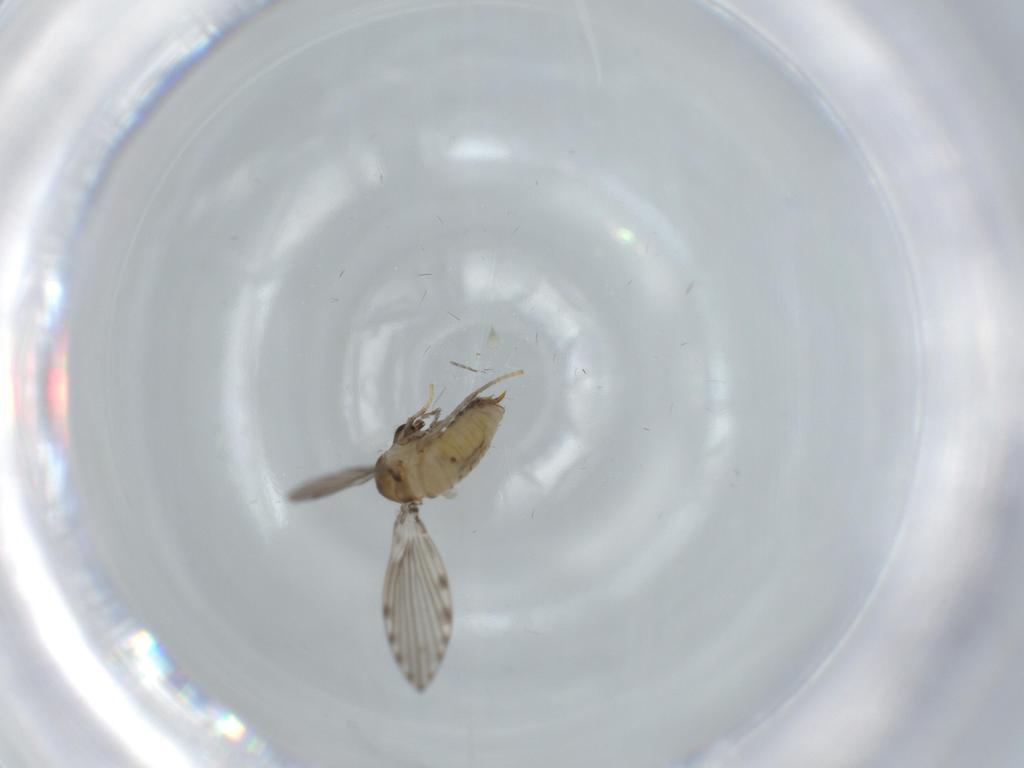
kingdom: Animalia
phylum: Arthropoda
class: Insecta
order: Diptera
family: Psychodidae
